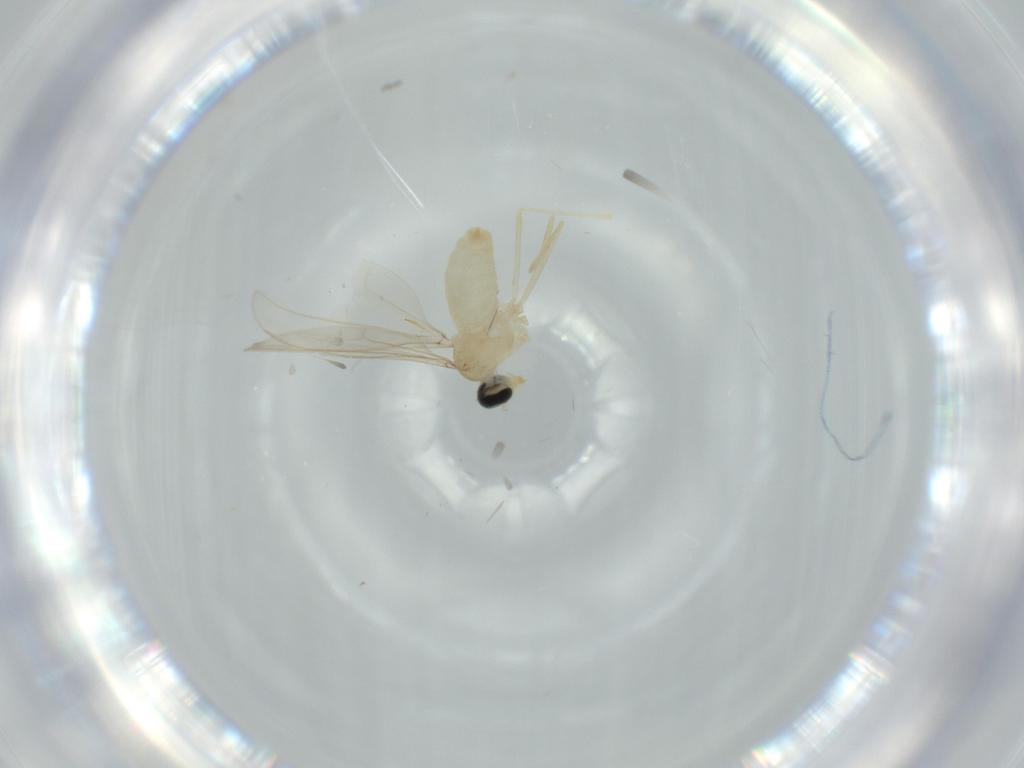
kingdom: Animalia
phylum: Arthropoda
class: Insecta
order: Diptera
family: Cecidomyiidae
